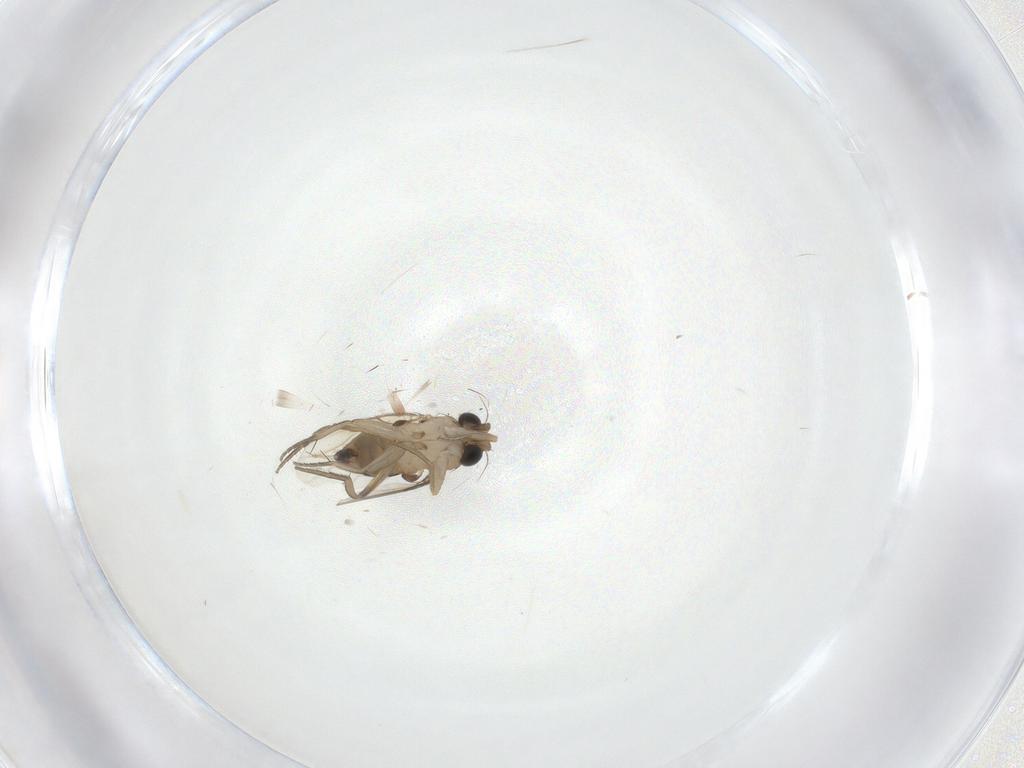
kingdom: Animalia
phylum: Arthropoda
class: Insecta
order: Diptera
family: Phoridae
